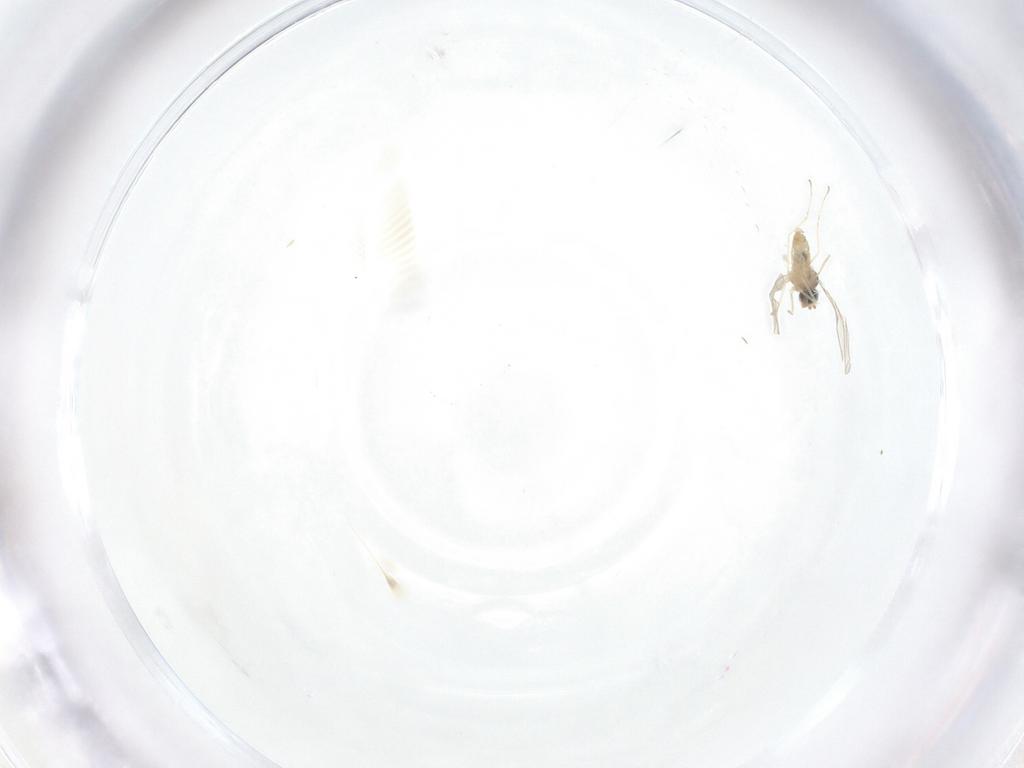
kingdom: Animalia
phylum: Arthropoda
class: Insecta
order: Diptera
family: Cecidomyiidae
